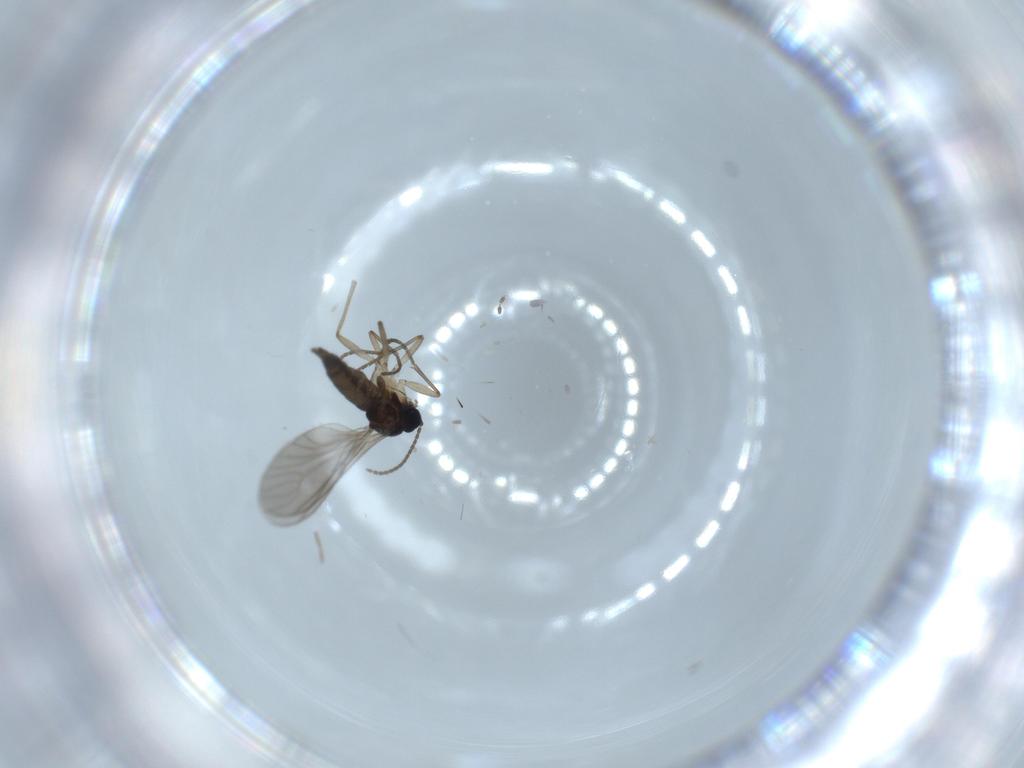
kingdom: Animalia
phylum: Arthropoda
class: Insecta
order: Diptera
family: Sciaridae
